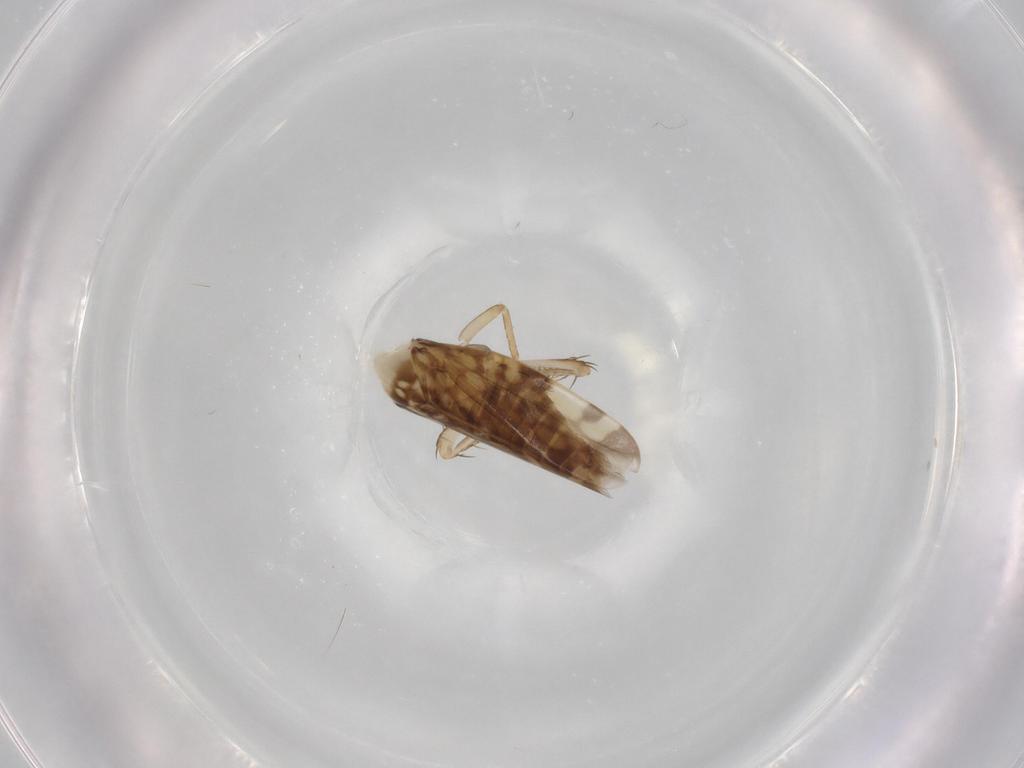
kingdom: Animalia
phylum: Arthropoda
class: Insecta
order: Hemiptera
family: Cicadellidae
